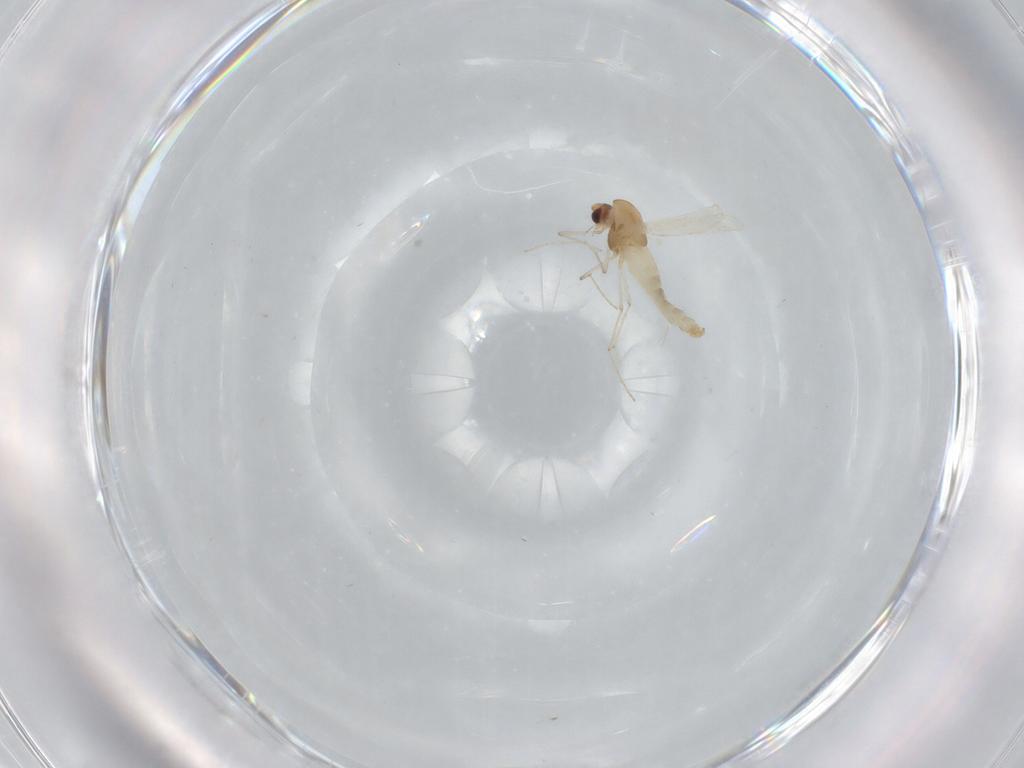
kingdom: Animalia
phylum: Arthropoda
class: Insecta
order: Diptera
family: Chironomidae
